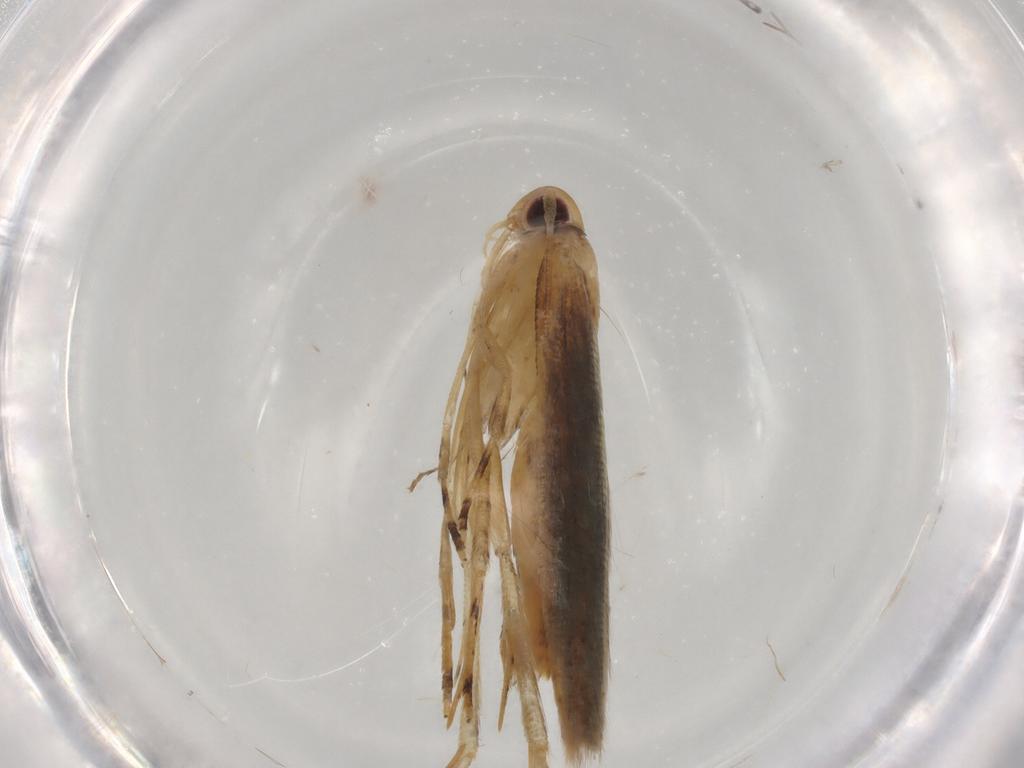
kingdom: Animalia
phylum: Arthropoda
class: Insecta
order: Lepidoptera
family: Cosmopterigidae
